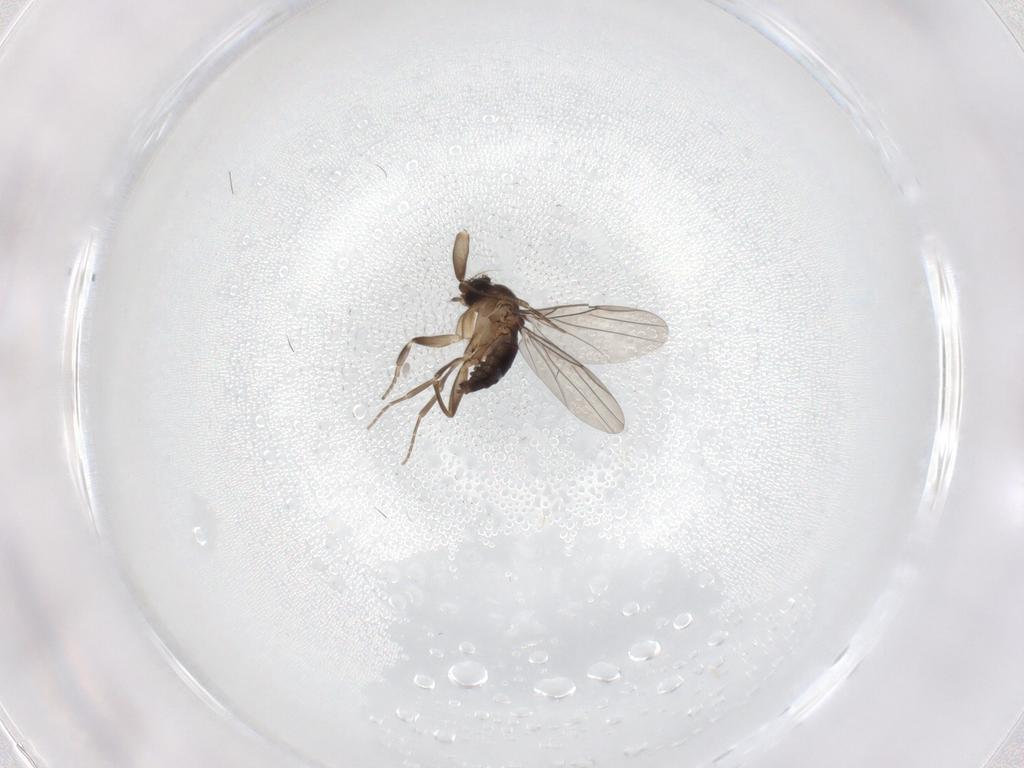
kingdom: Animalia
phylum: Arthropoda
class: Insecta
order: Diptera
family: Phoridae
